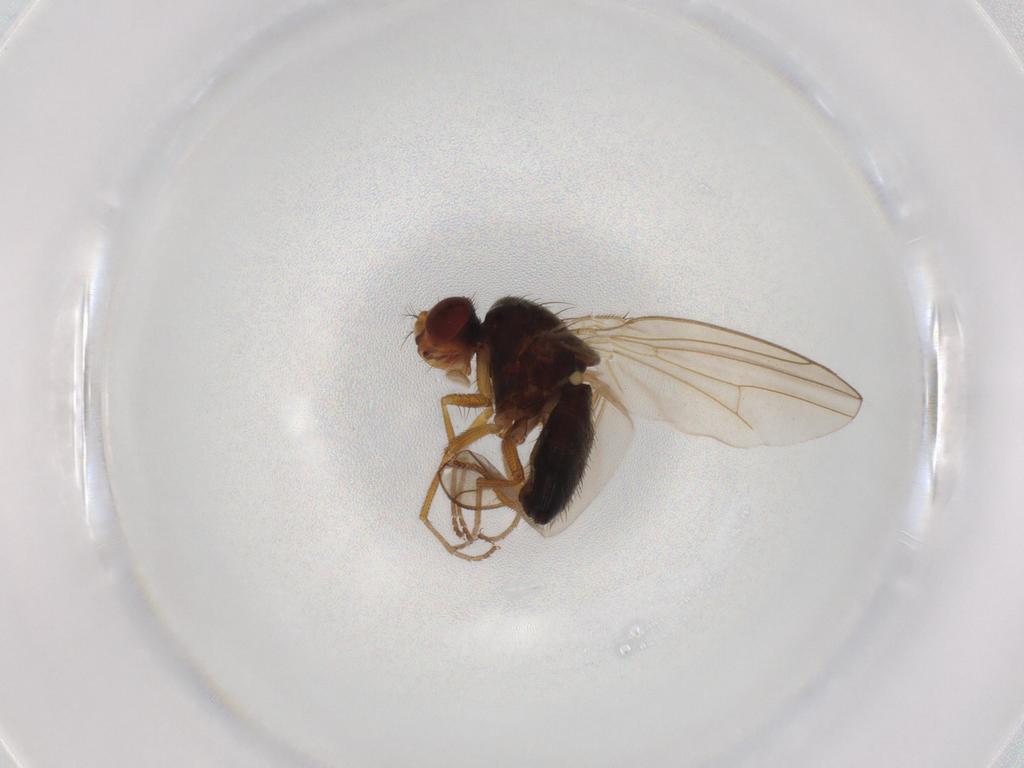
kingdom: Animalia
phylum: Arthropoda
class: Insecta
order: Diptera
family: Drosophilidae
